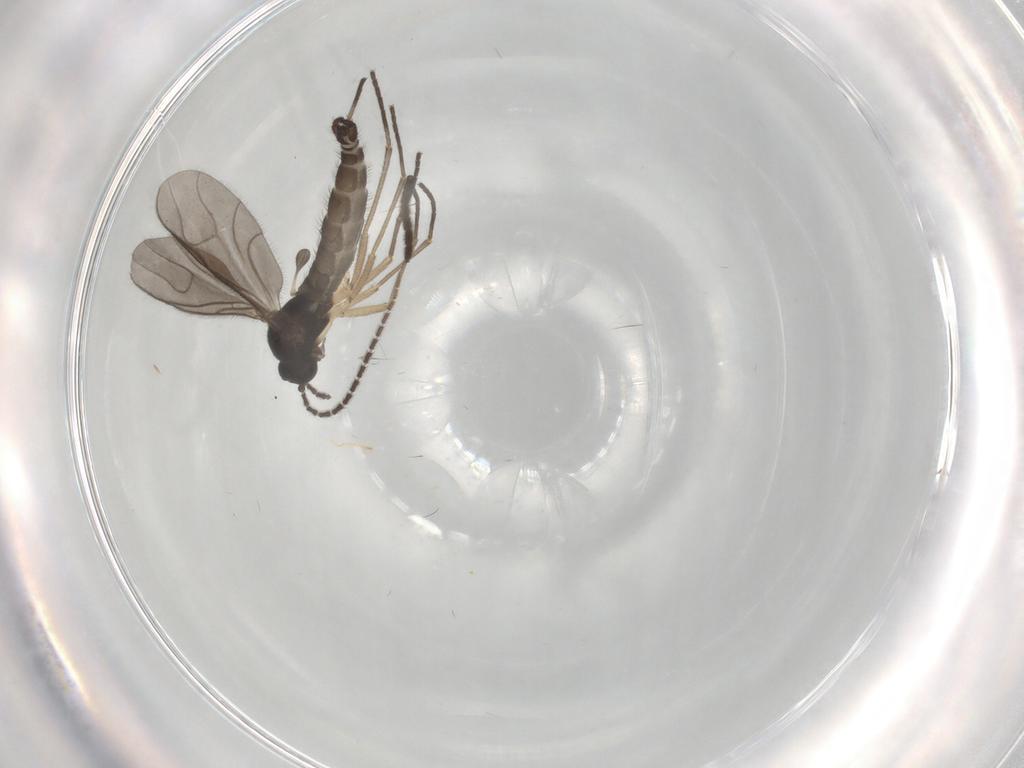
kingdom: Animalia
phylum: Arthropoda
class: Insecta
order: Diptera
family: Sciaridae
